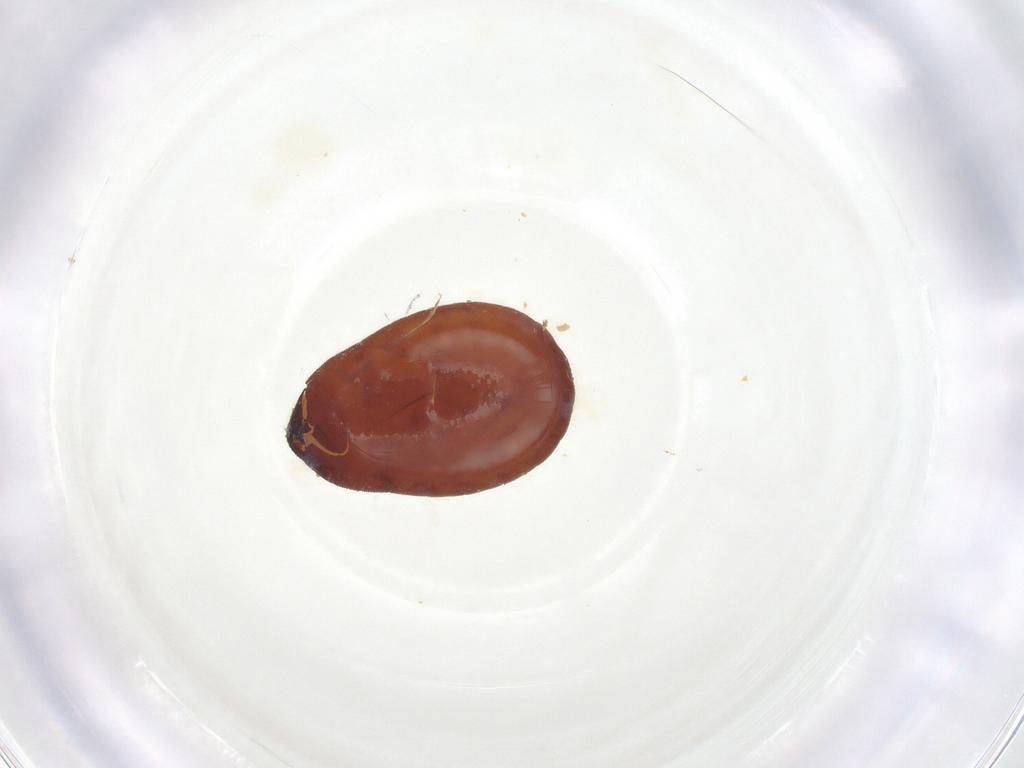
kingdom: Animalia
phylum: Arthropoda
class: Insecta
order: Diptera
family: Fergusoninidae
